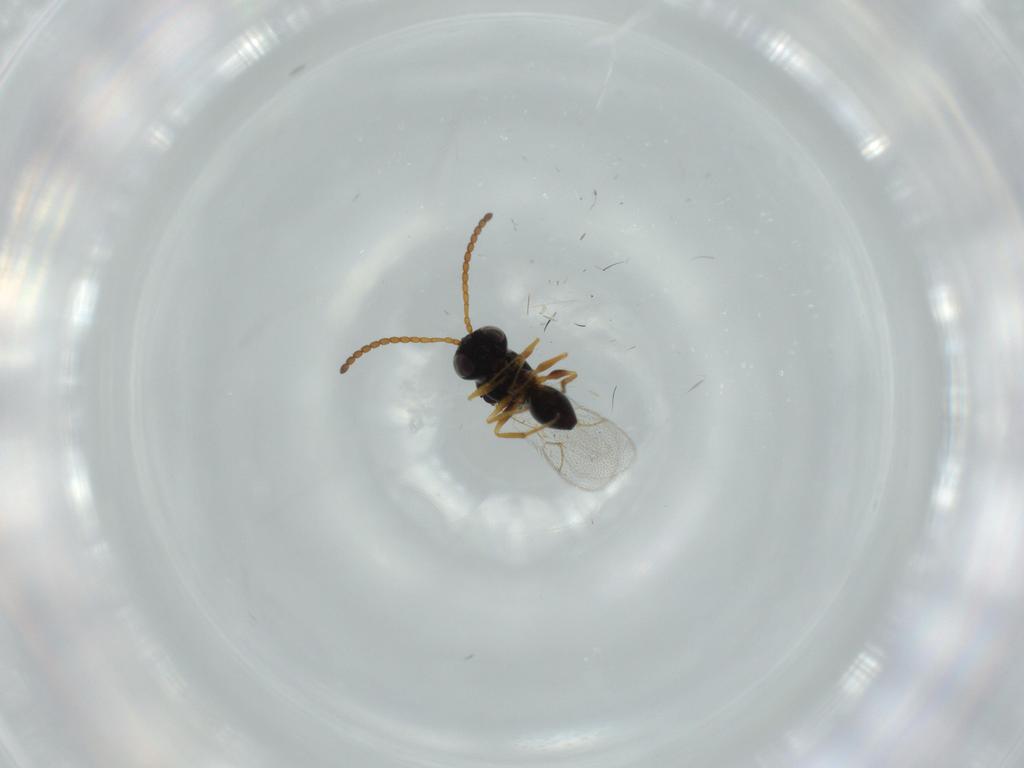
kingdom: Animalia
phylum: Arthropoda
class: Insecta
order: Hymenoptera
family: Figitidae
